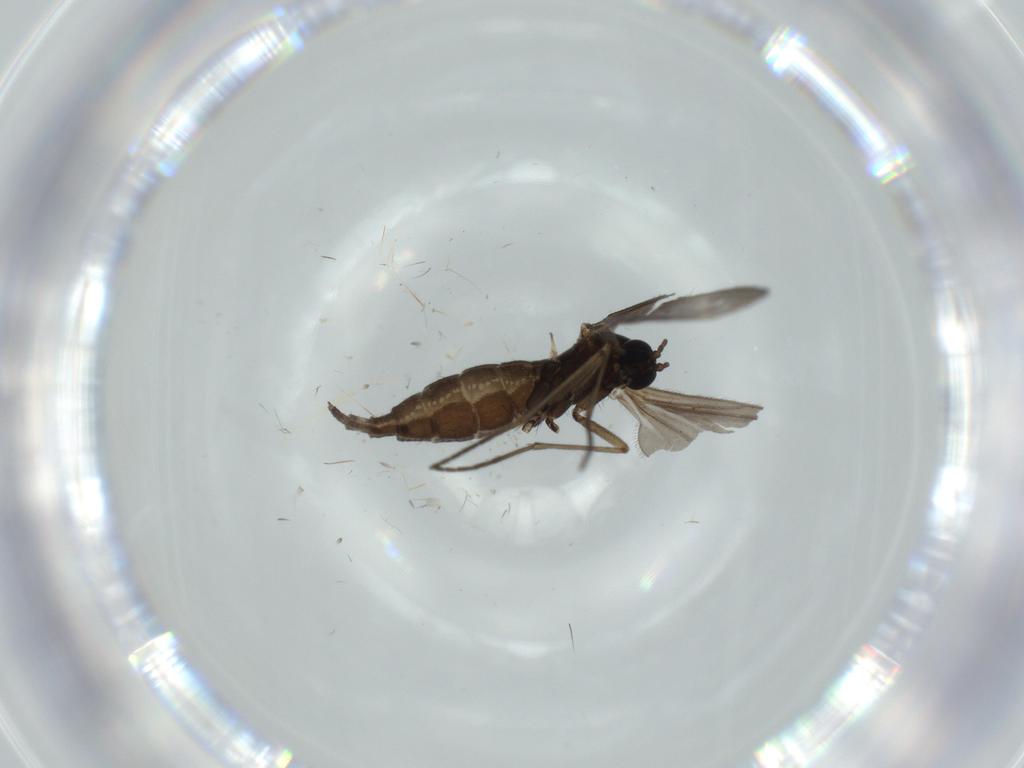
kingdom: Animalia
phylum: Arthropoda
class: Insecta
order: Diptera
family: Sciaridae
